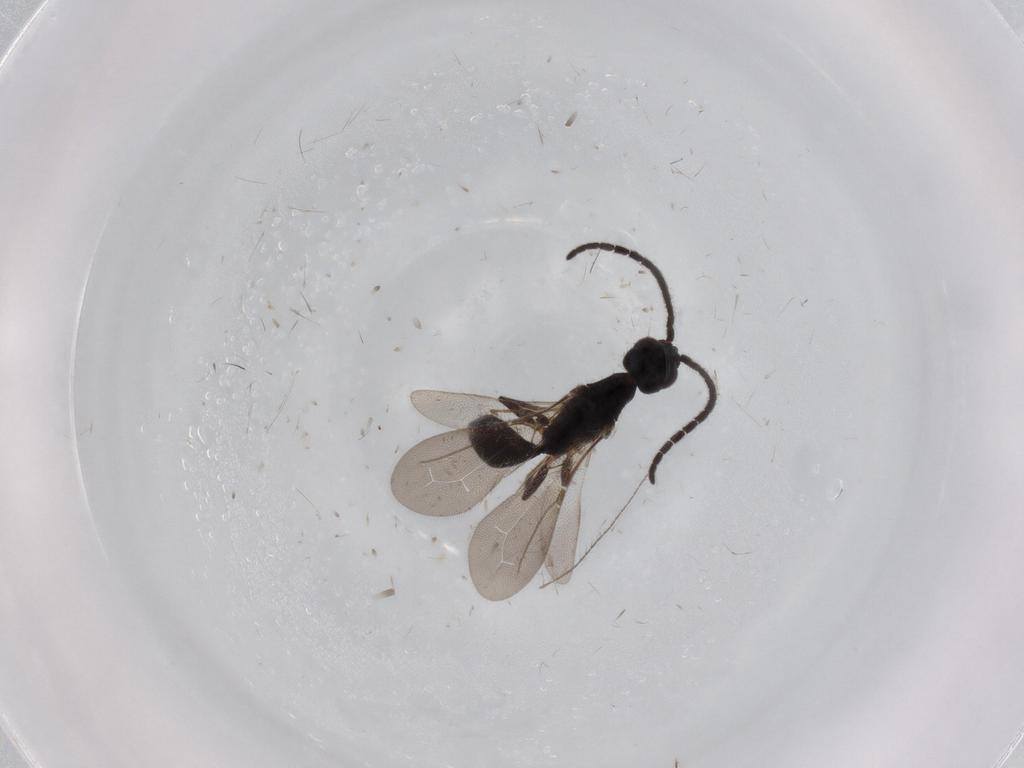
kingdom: Animalia
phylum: Arthropoda
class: Insecta
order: Hymenoptera
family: Bethylidae
